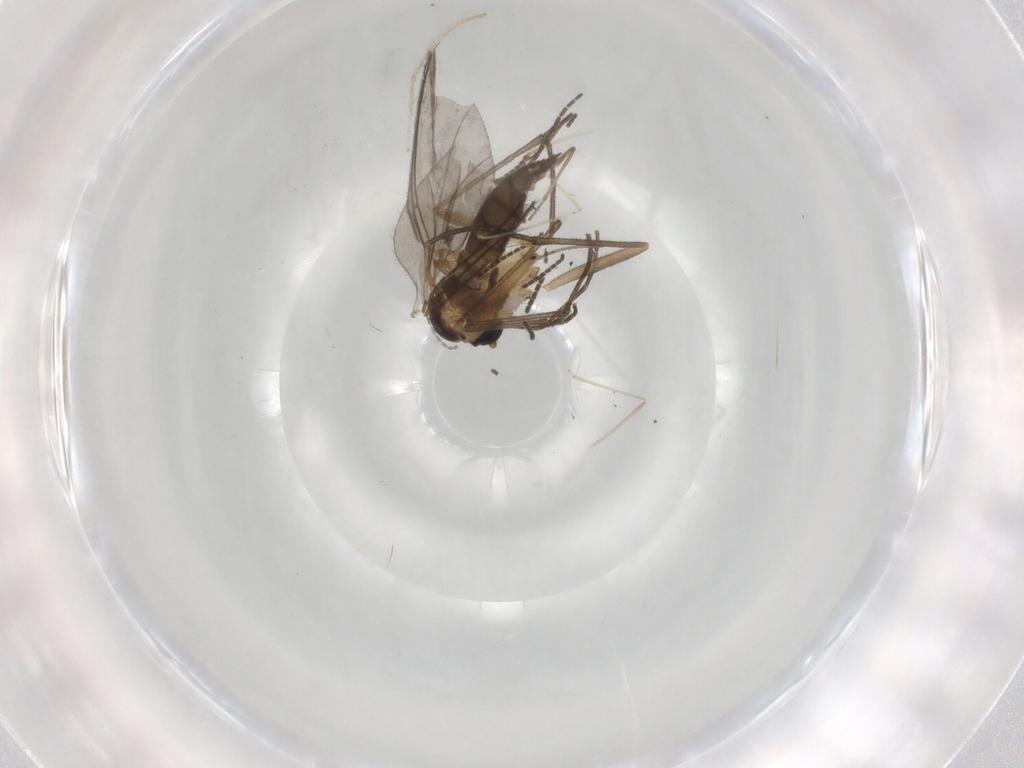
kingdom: Animalia
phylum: Arthropoda
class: Insecta
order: Diptera
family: Sciaridae
